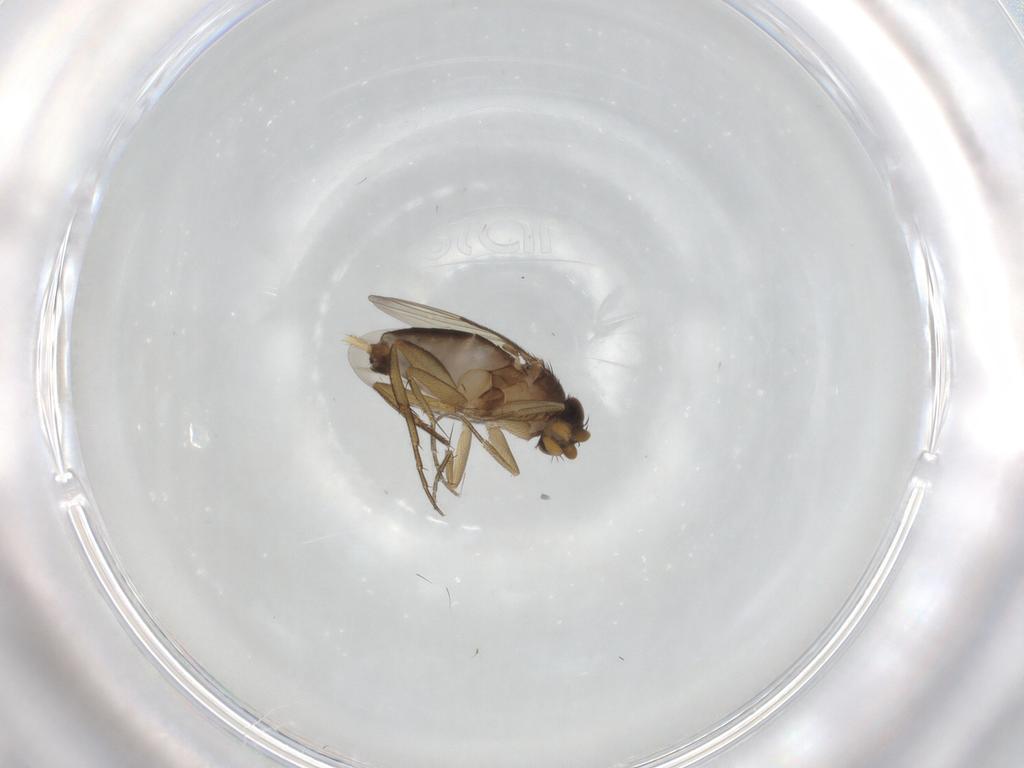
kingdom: Animalia
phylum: Arthropoda
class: Insecta
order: Diptera
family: Phoridae
